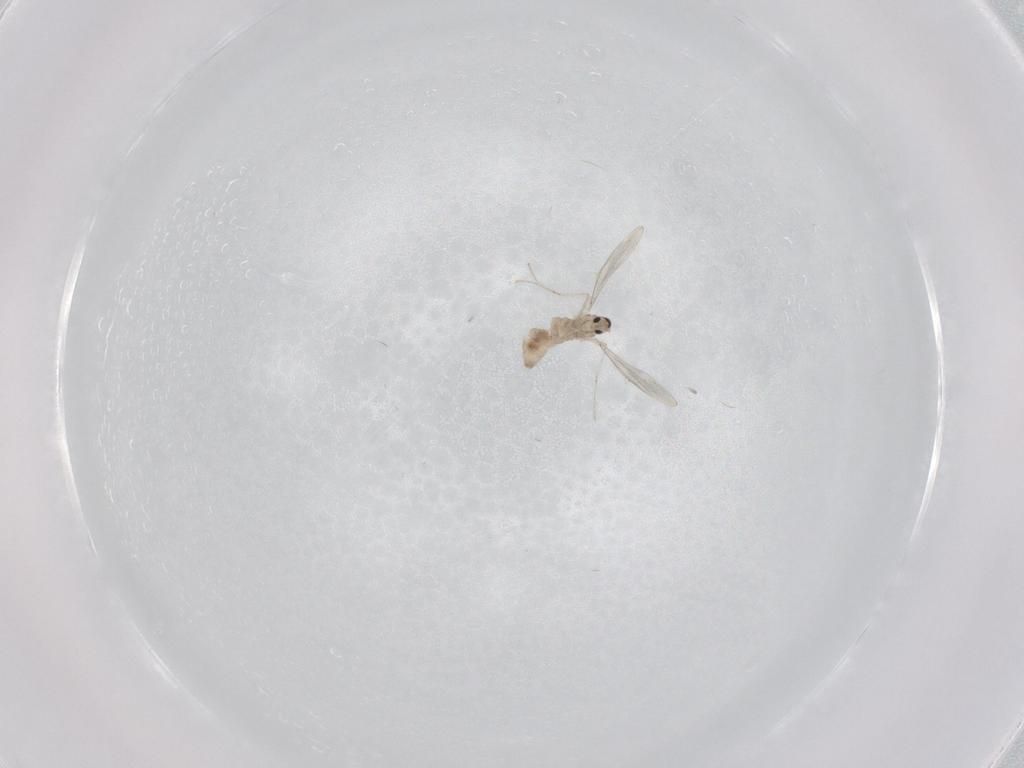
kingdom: Animalia
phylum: Arthropoda
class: Insecta
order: Diptera
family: Cecidomyiidae
